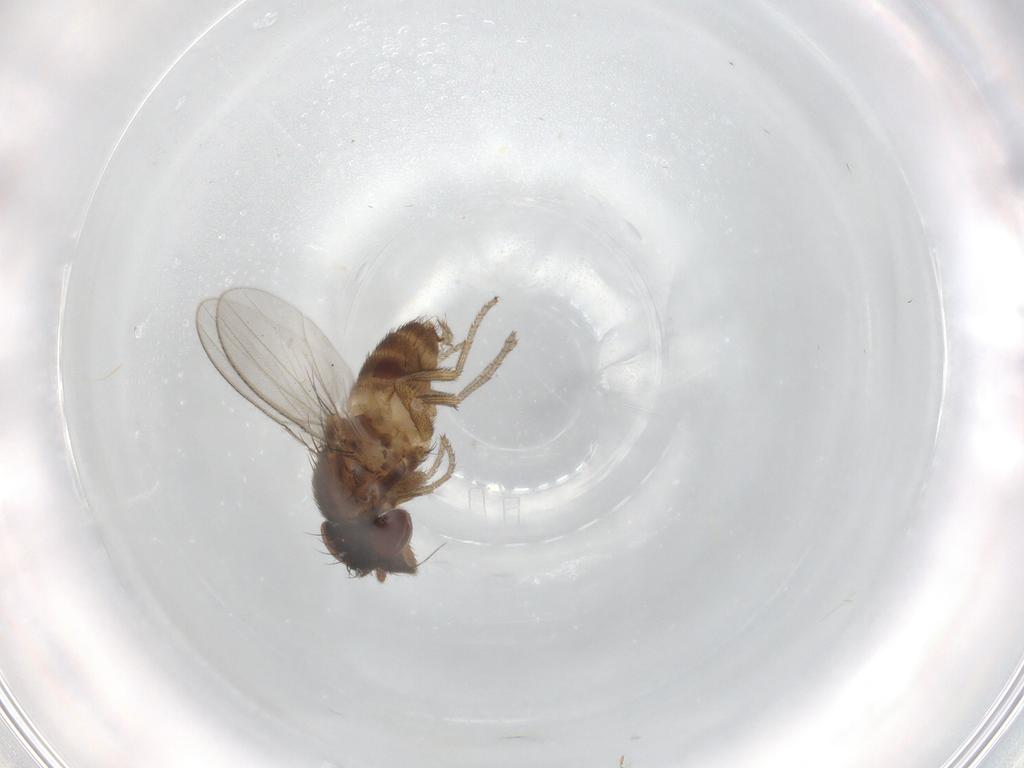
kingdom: Animalia
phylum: Arthropoda
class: Insecta
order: Diptera
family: Milichiidae
